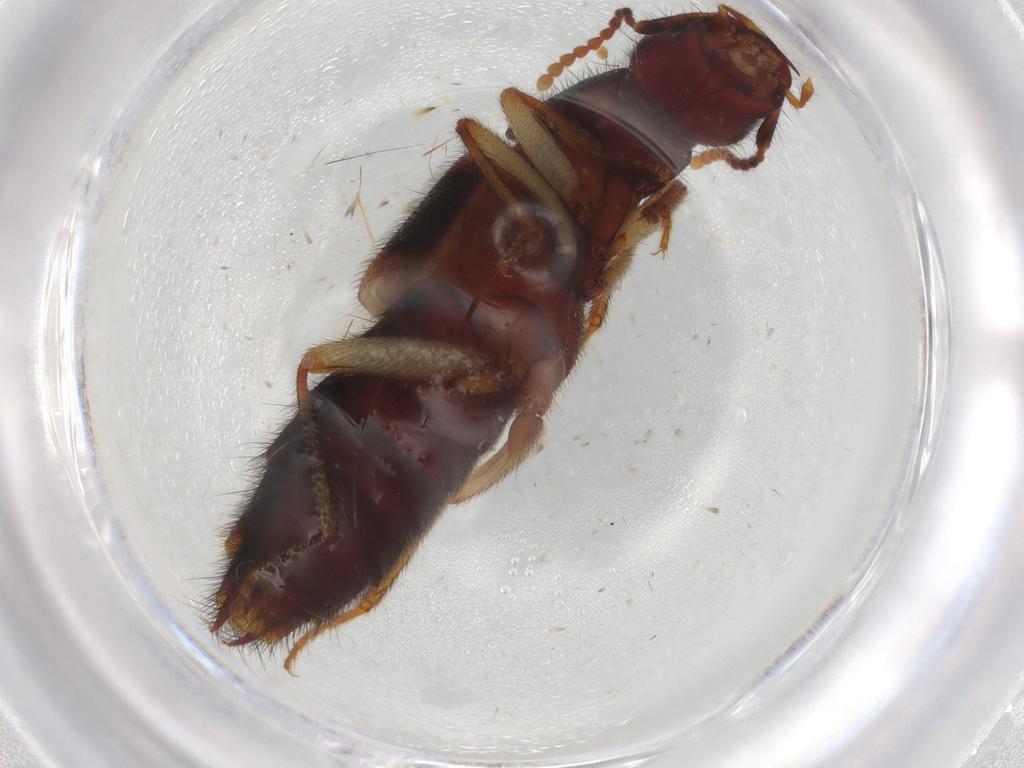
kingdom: Animalia
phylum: Arthropoda
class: Insecta
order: Coleoptera
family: Staphylinidae
